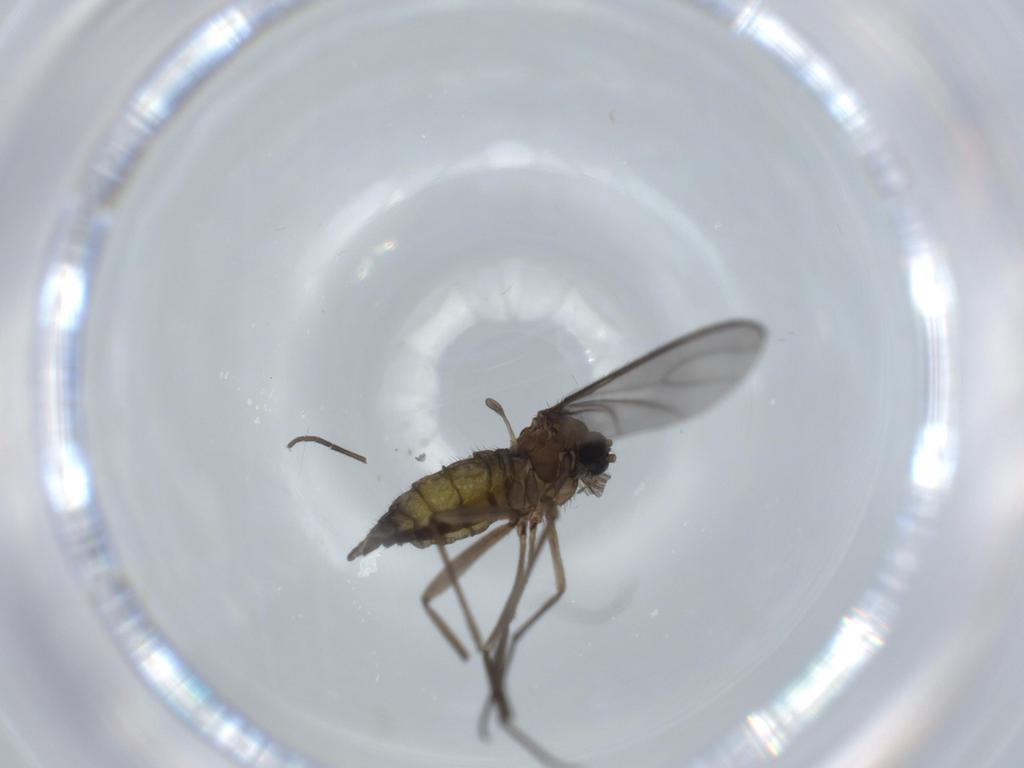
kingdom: Animalia
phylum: Arthropoda
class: Insecta
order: Diptera
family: Sciaridae
